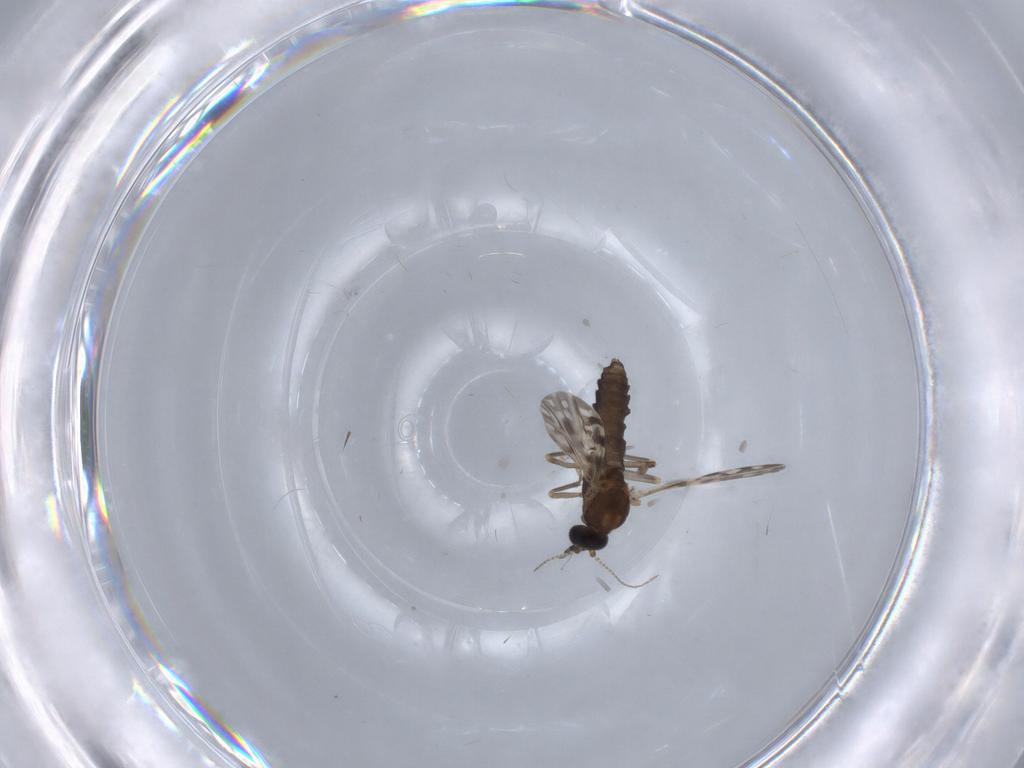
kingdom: Animalia
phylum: Arthropoda
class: Insecta
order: Diptera
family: Ceratopogonidae
